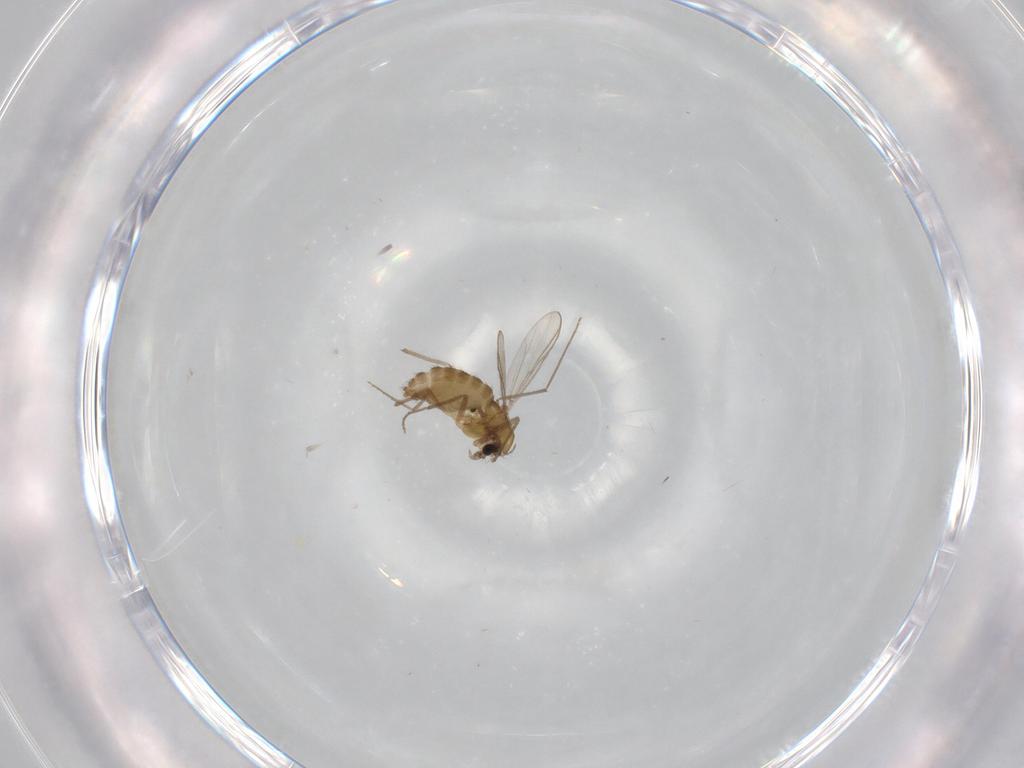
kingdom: Animalia
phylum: Arthropoda
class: Insecta
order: Diptera
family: Chironomidae
